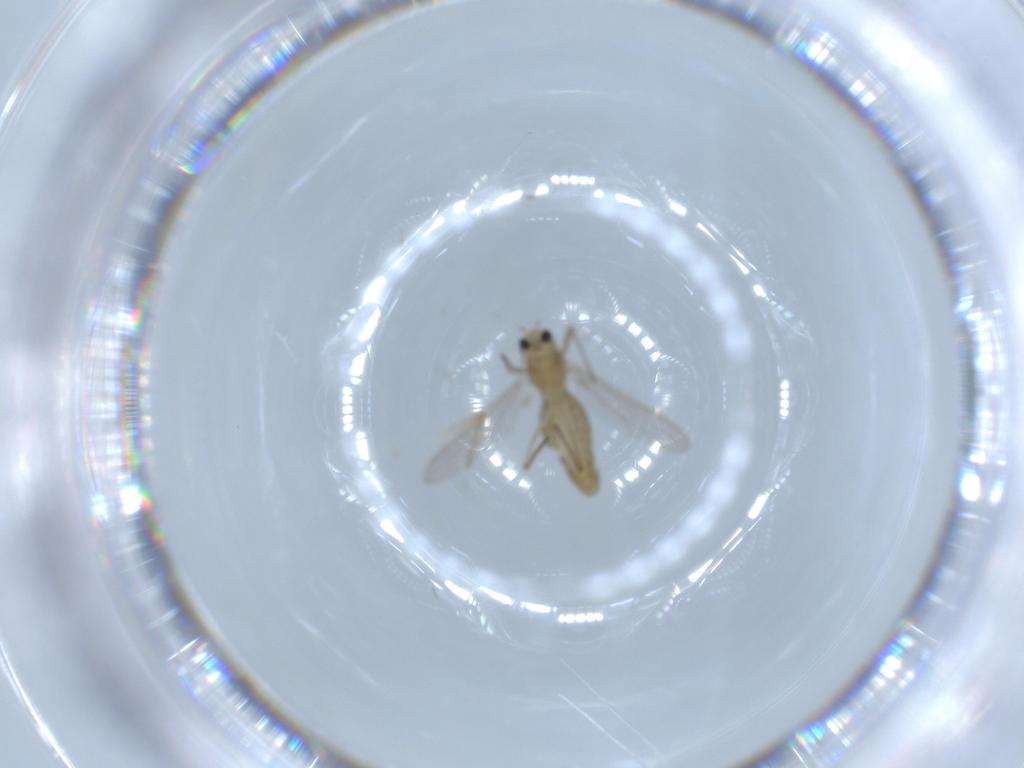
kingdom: Animalia
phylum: Arthropoda
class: Insecta
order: Diptera
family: Chironomidae
